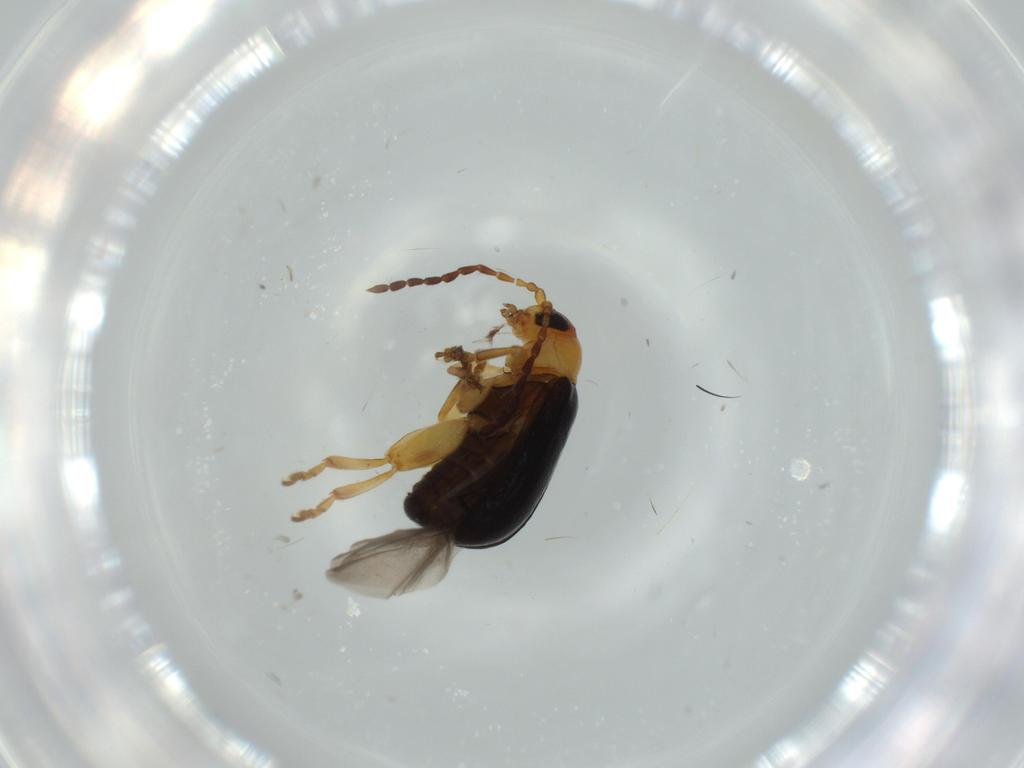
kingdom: Animalia
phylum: Arthropoda
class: Insecta
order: Coleoptera
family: Chrysomelidae
